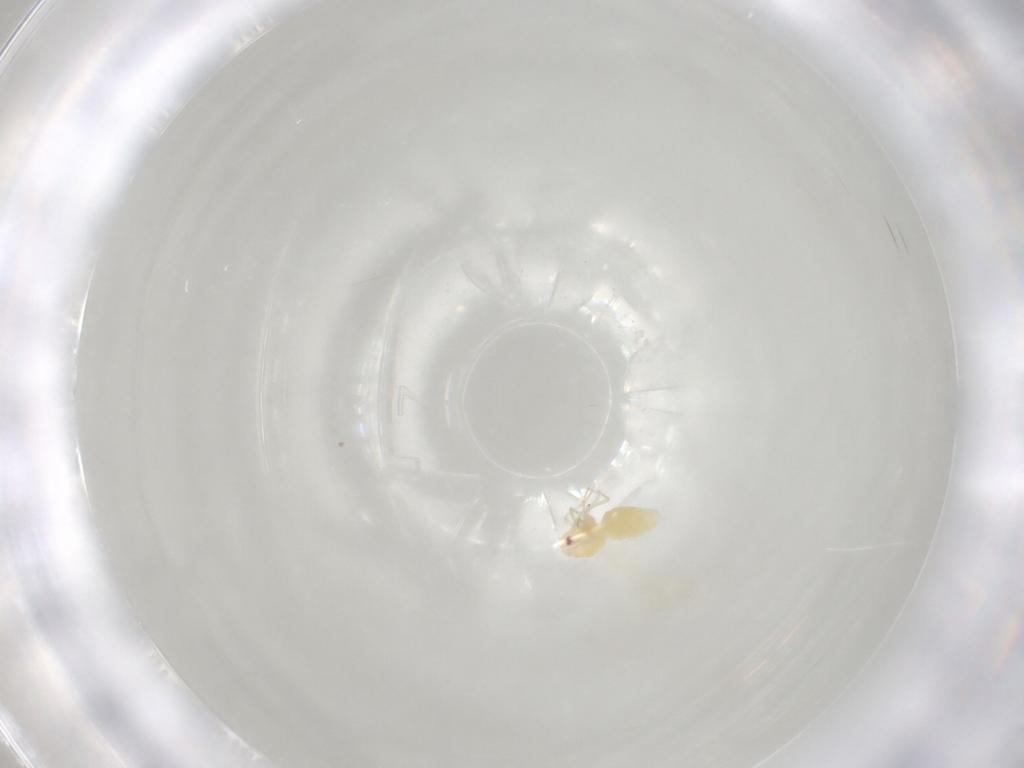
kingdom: Animalia
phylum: Arthropoda
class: Insecta
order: Hemiptera
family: Aleyrodidae
